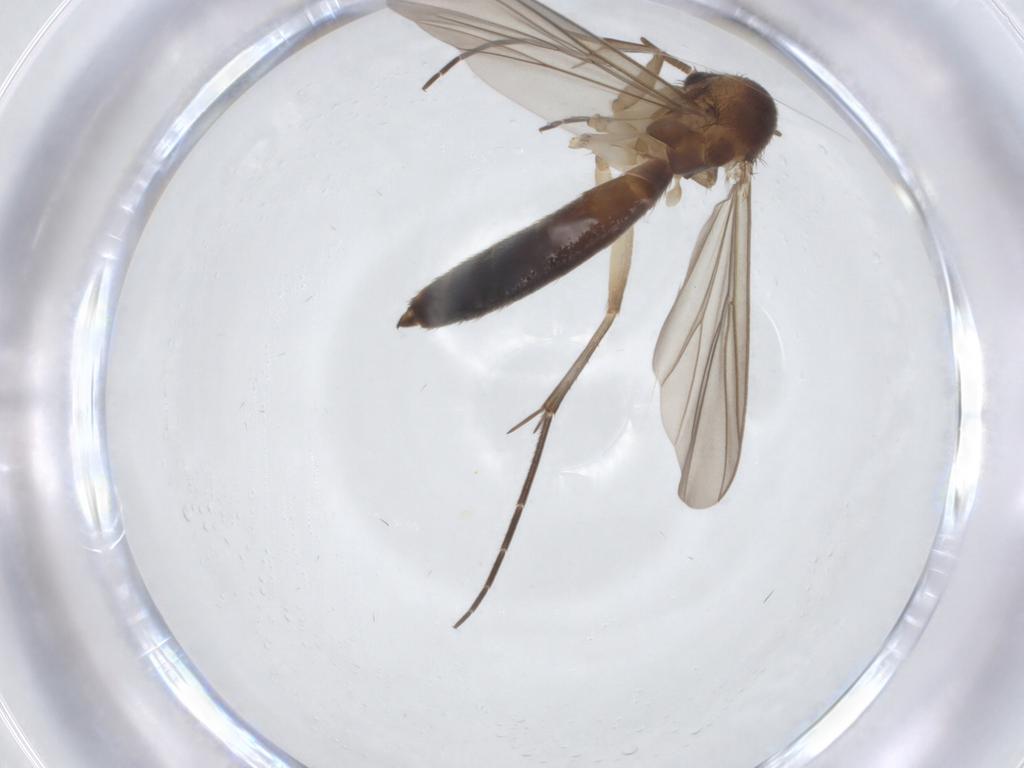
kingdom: Animalia
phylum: Arthropoda
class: Insecta
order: Diptera
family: Mycetophilidae
